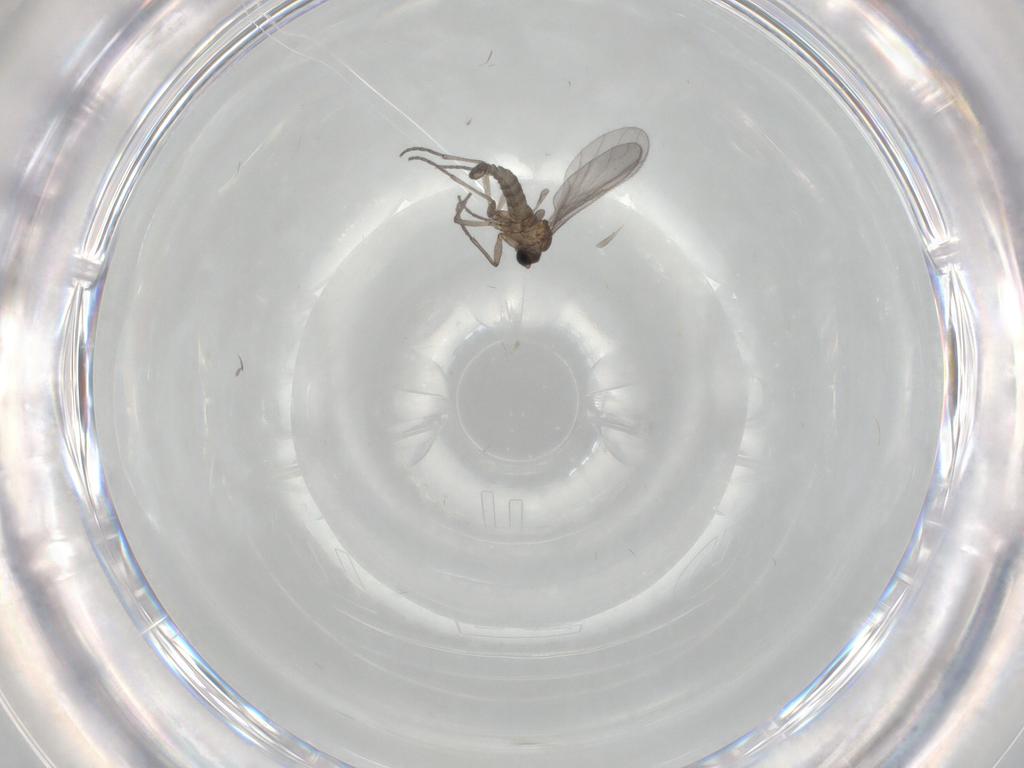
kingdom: Animalia
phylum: Arthropoda
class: Insecta
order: Diptera
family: Sciaridae
